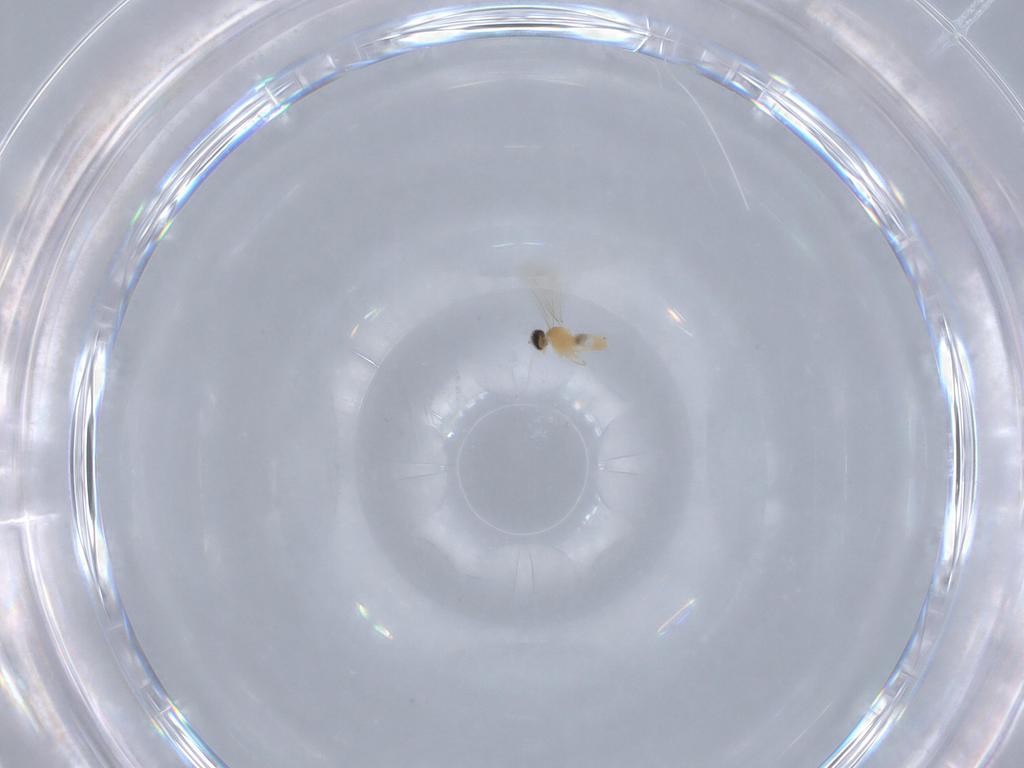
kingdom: Animalia
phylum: Arthropoda
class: Insecta
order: Diptera
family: Cecidomyiidae
